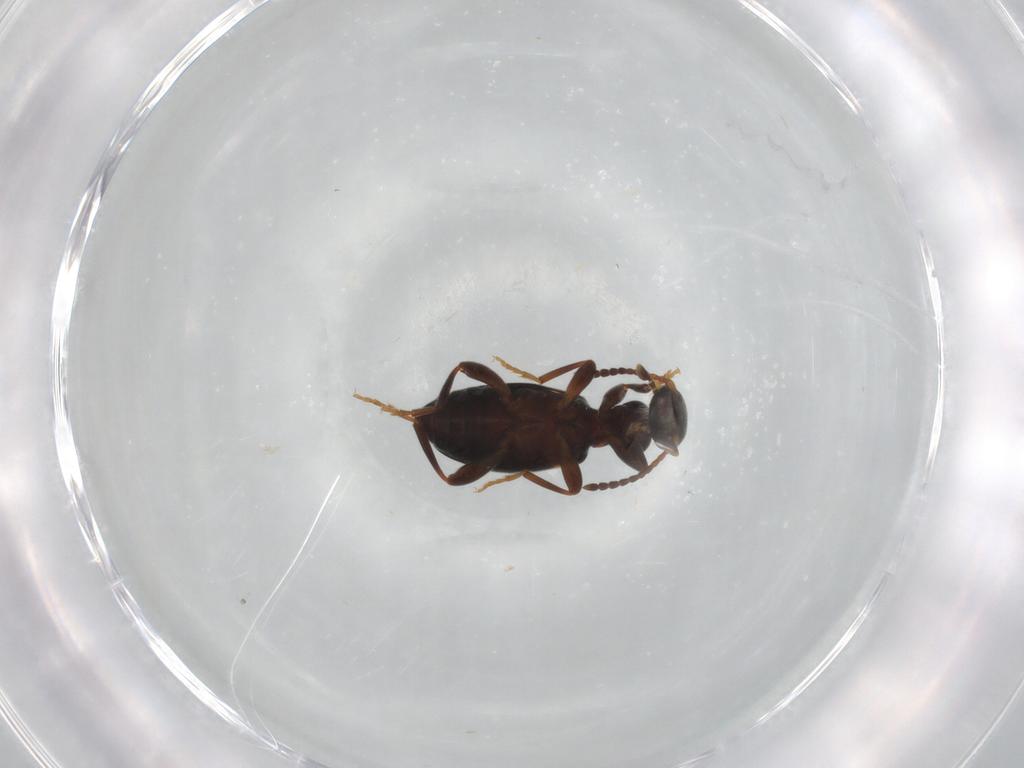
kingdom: Animalia
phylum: Arthropoda
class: Insecta
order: Coleoptera
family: Anthicidae
